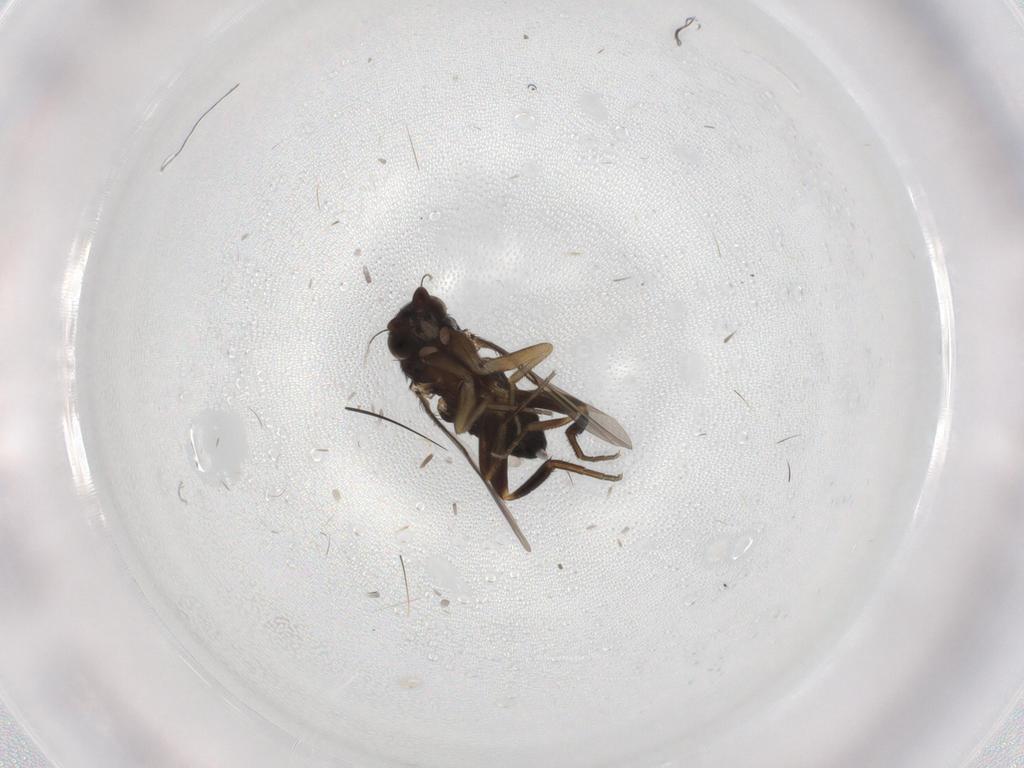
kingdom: Animalia
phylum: Arthropoda
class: Insecta
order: Diptera
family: Phoridae
